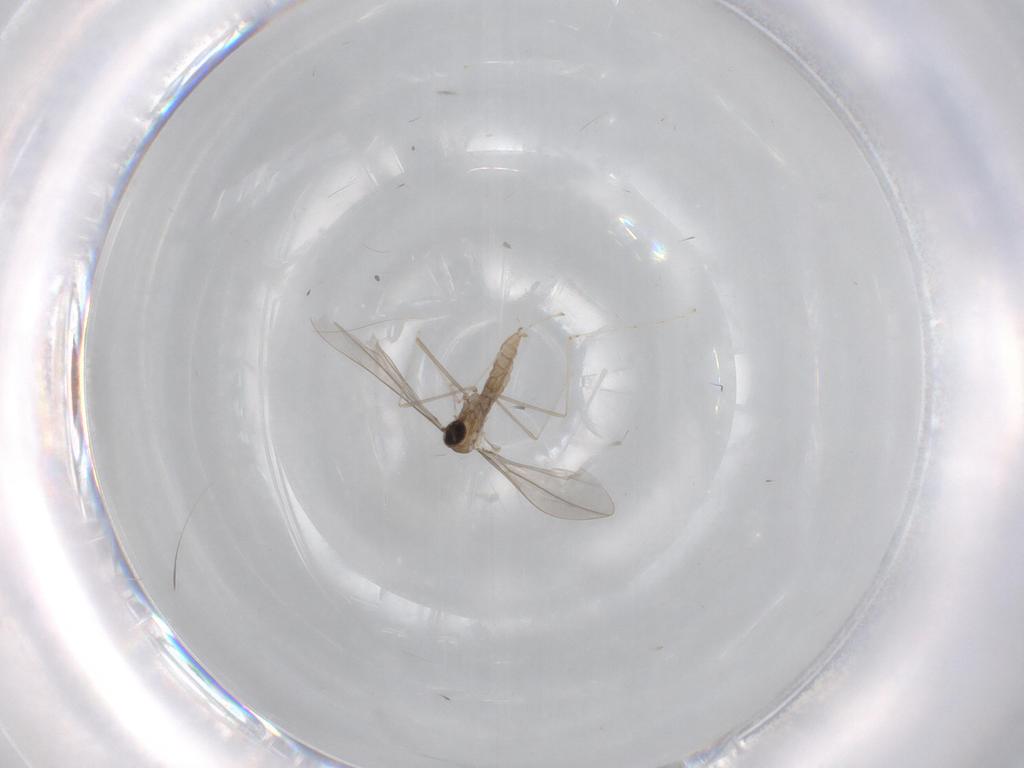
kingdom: Animalia
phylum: Arthropoda
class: Insecta
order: Diptera
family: Cecidomyiidae
